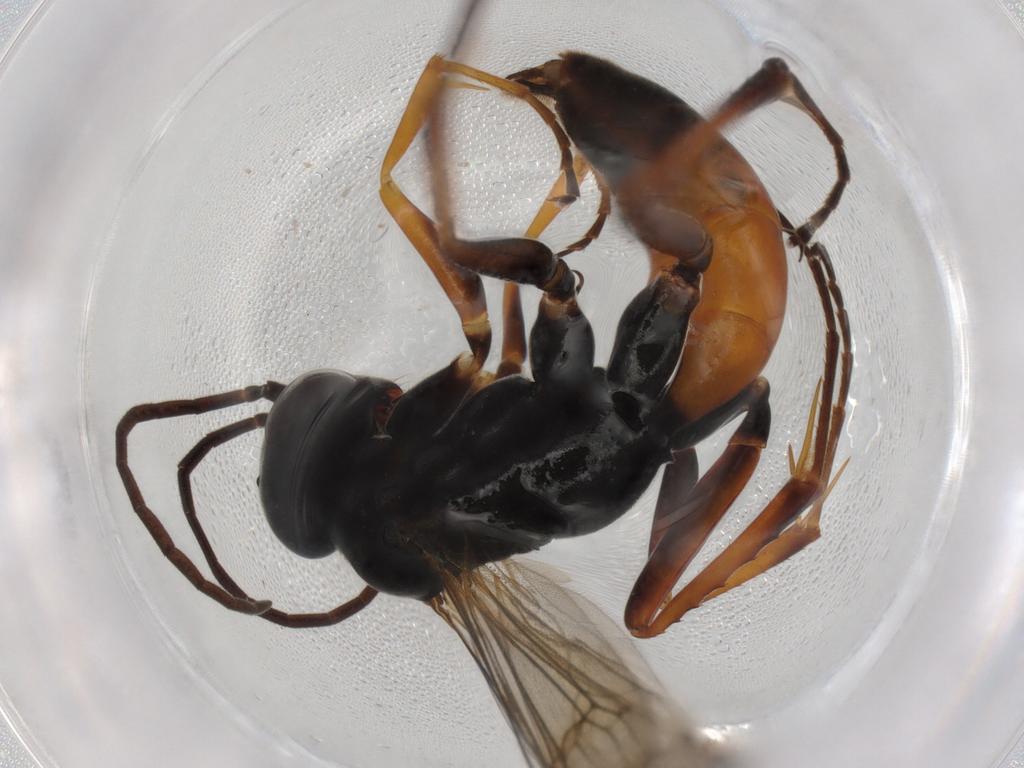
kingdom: Animalia
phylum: Arthropoda
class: Insecta
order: Hymenoptera
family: Pompilidae
